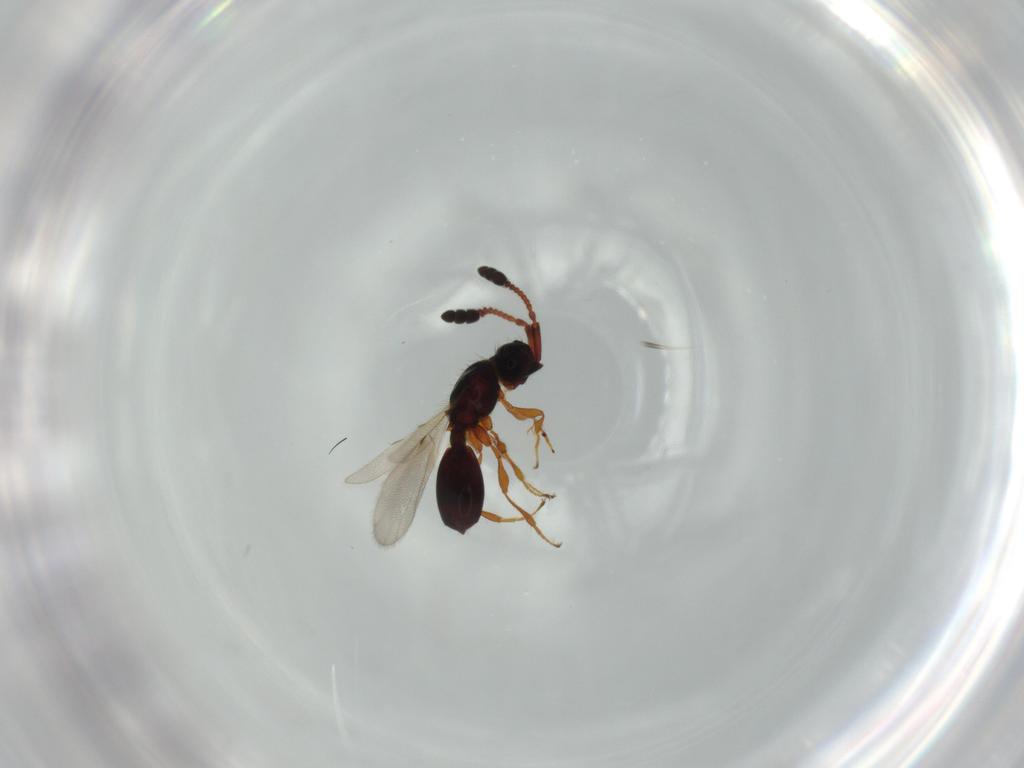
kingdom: Animalia
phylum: Arthropoda
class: Insecta
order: Hymenoptera
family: Diapriidae
